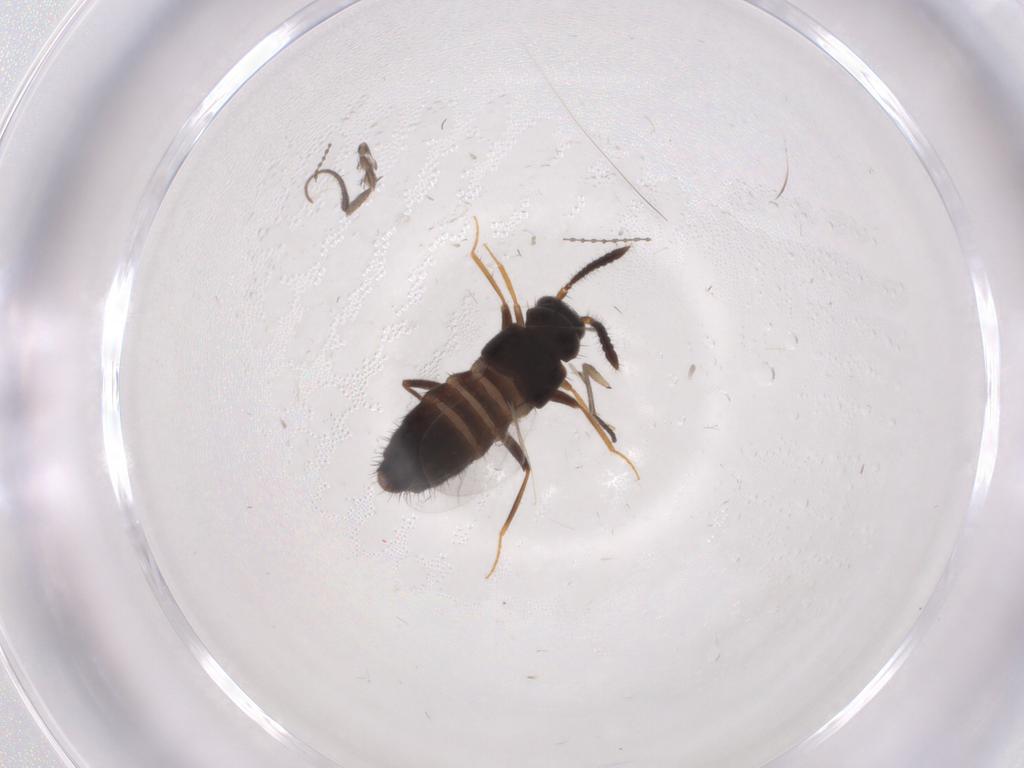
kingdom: Animalia
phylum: Arthropoda
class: Insecta
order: Coleoptera
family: Staphylinidae
